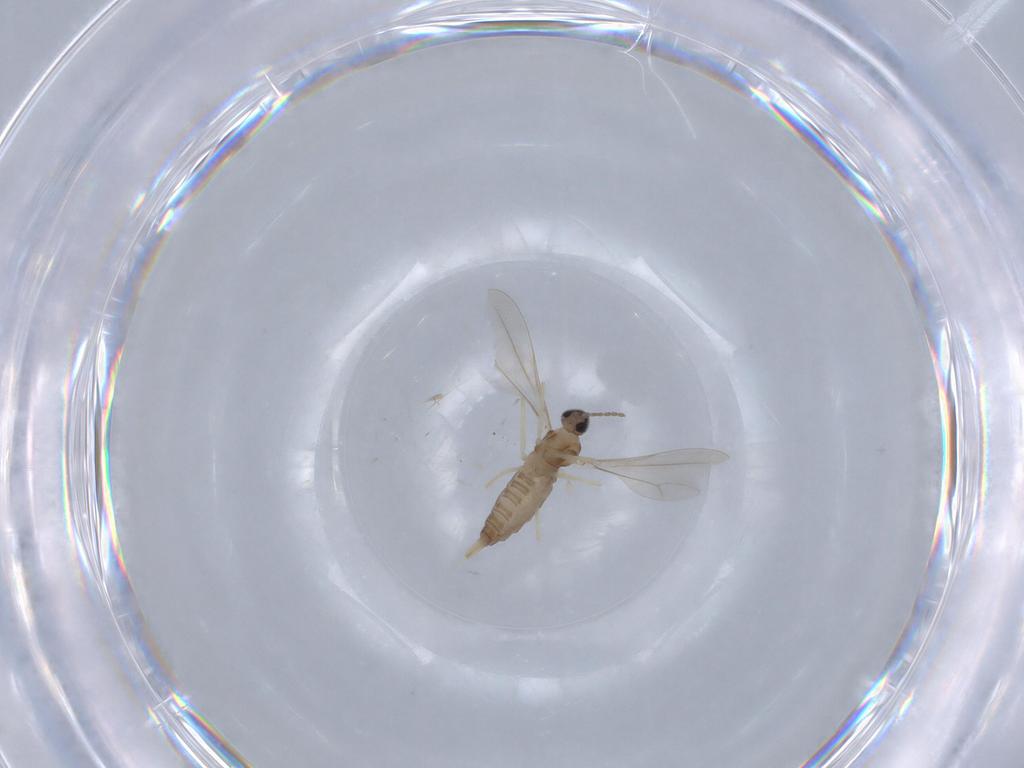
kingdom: Animalia
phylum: Arthropoda
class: Insecta
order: Diptera
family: Cecidomyiidae
